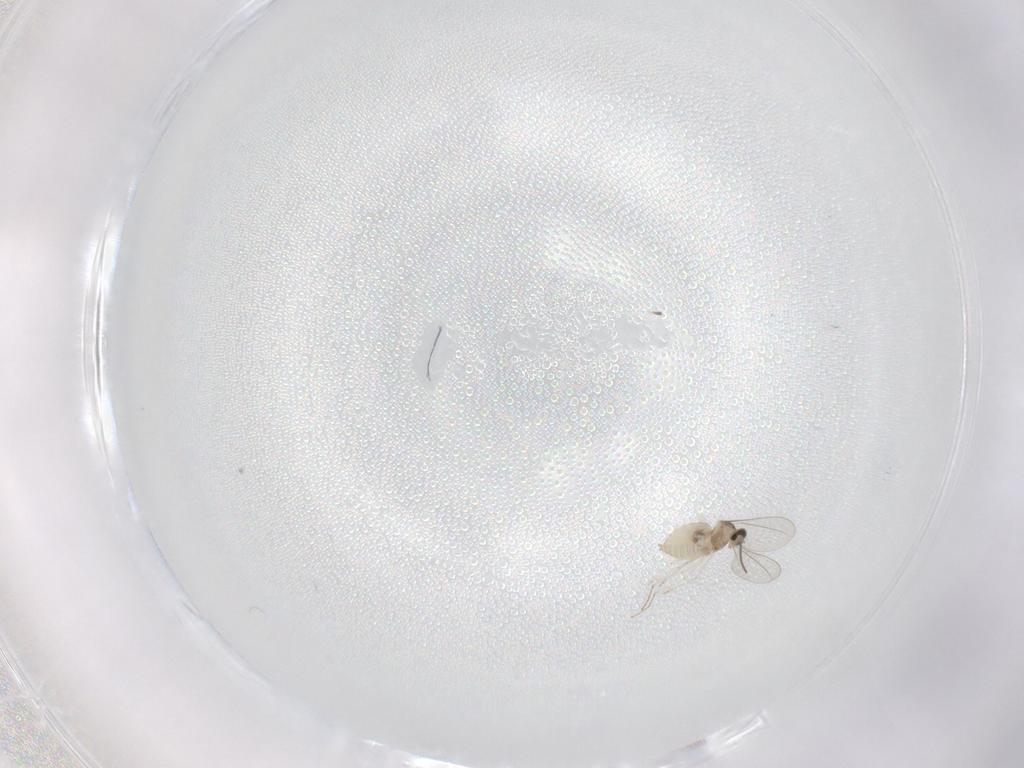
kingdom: Animalia
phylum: Arthropoda
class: Insecta
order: Diptera
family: Cecidomyiidae
